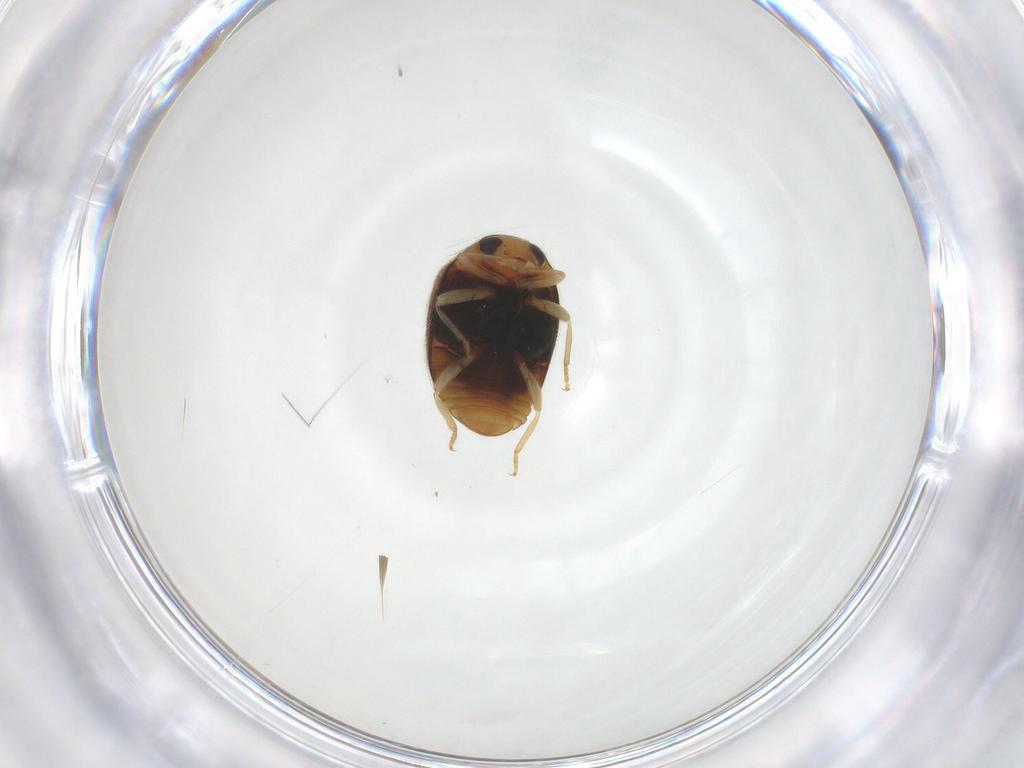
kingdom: Animalia
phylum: Arthropoda
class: Insecta
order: Coleoptera
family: Coccinellidae
